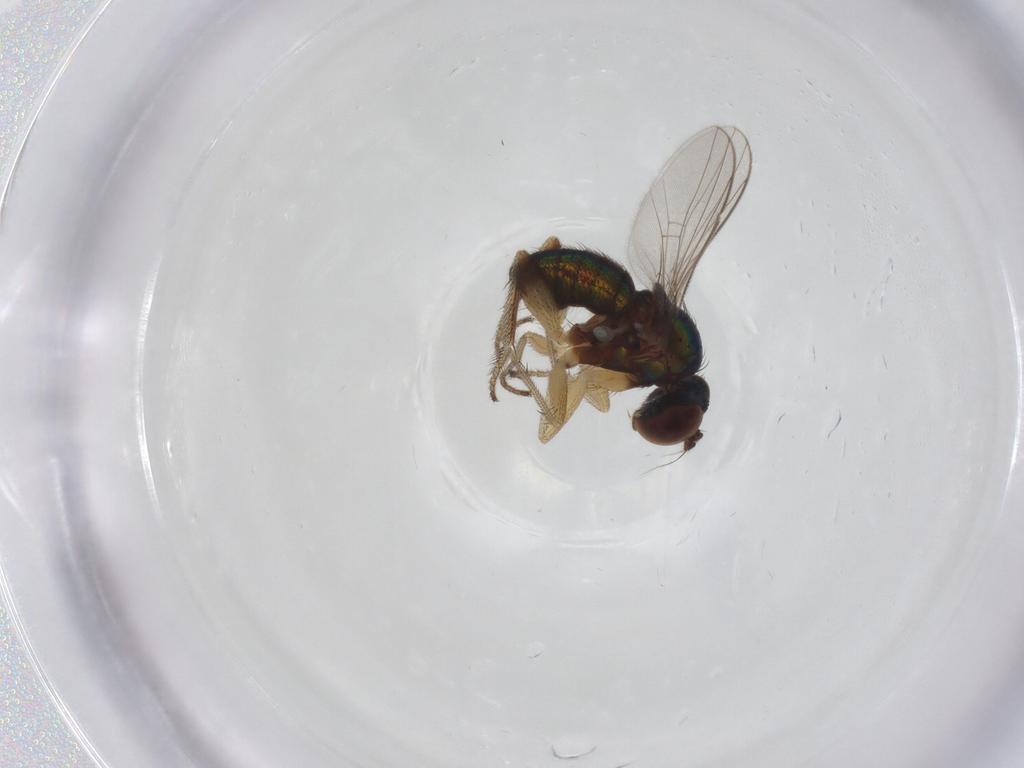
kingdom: Animalia
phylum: Arthropoda
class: Insecta
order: Diptera
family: Dolichopodidae
